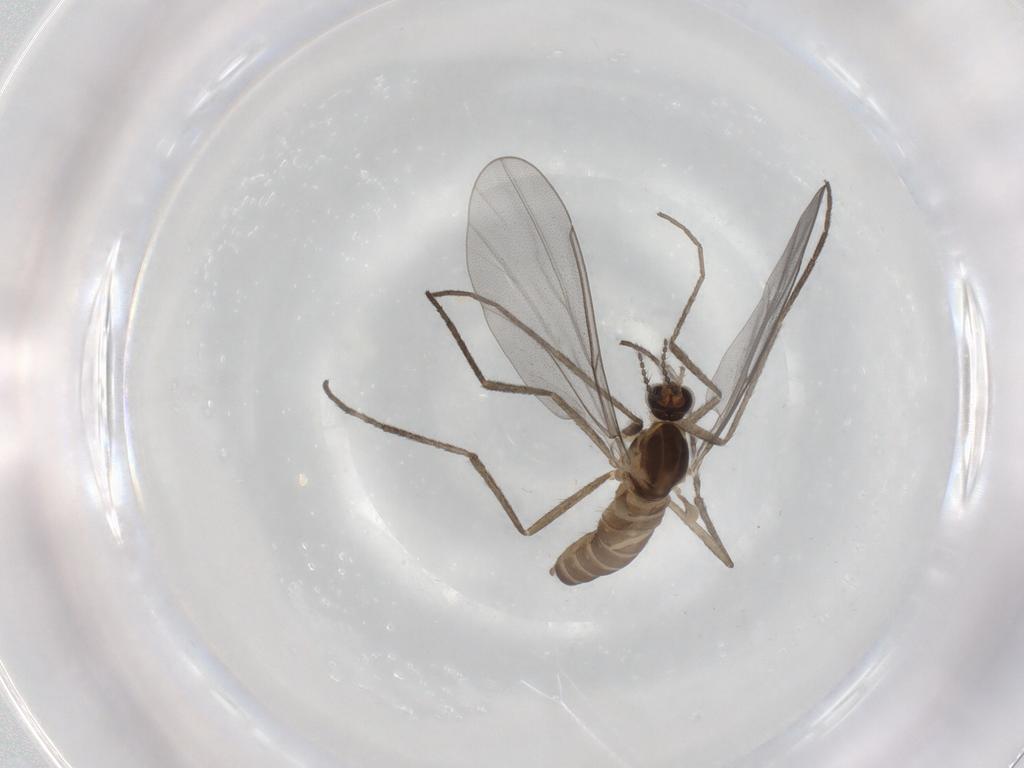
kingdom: Animalia
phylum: Arthropoda
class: Insecta
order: Diptera
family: Cecidomyiidae
